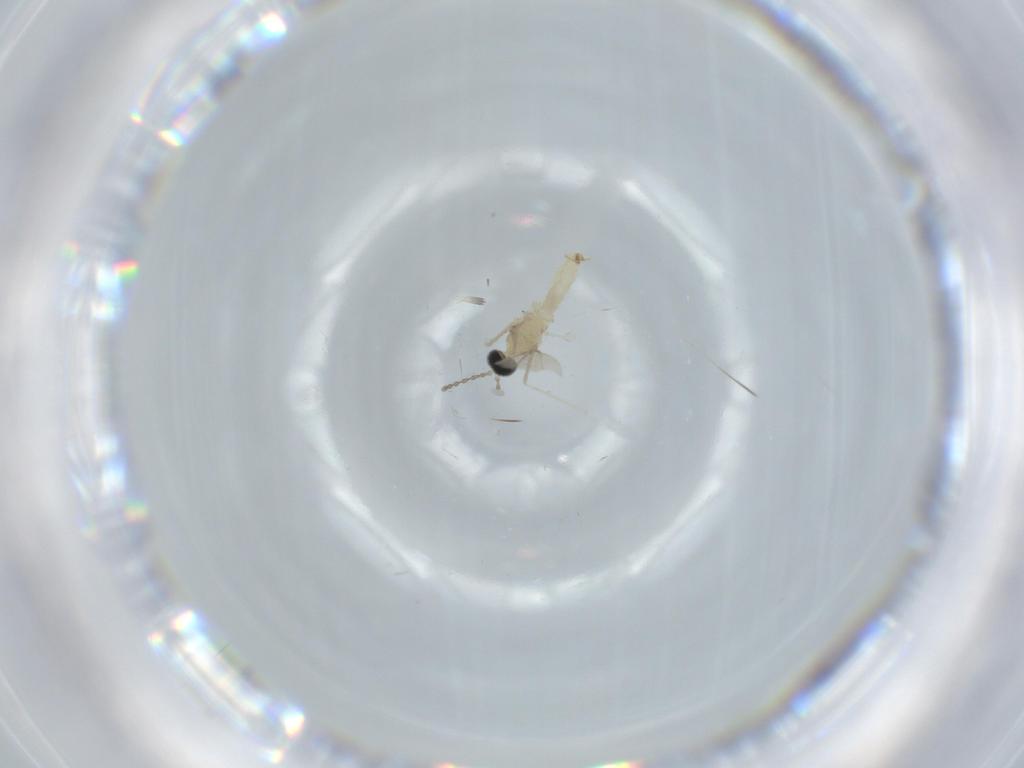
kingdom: Animalia
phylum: Arthropoda
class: Insecta
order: Diptera
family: Cecidomyiidae
